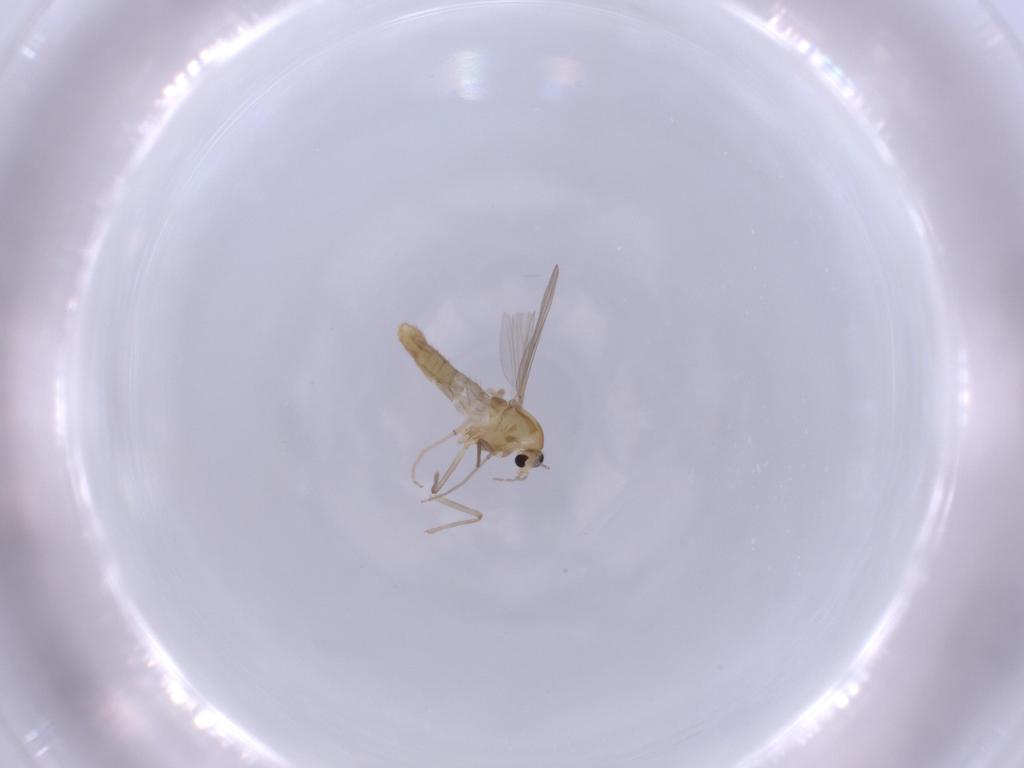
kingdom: Animalia
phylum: Arthropoda
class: Insecta
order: Diptera
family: Chironomidae
